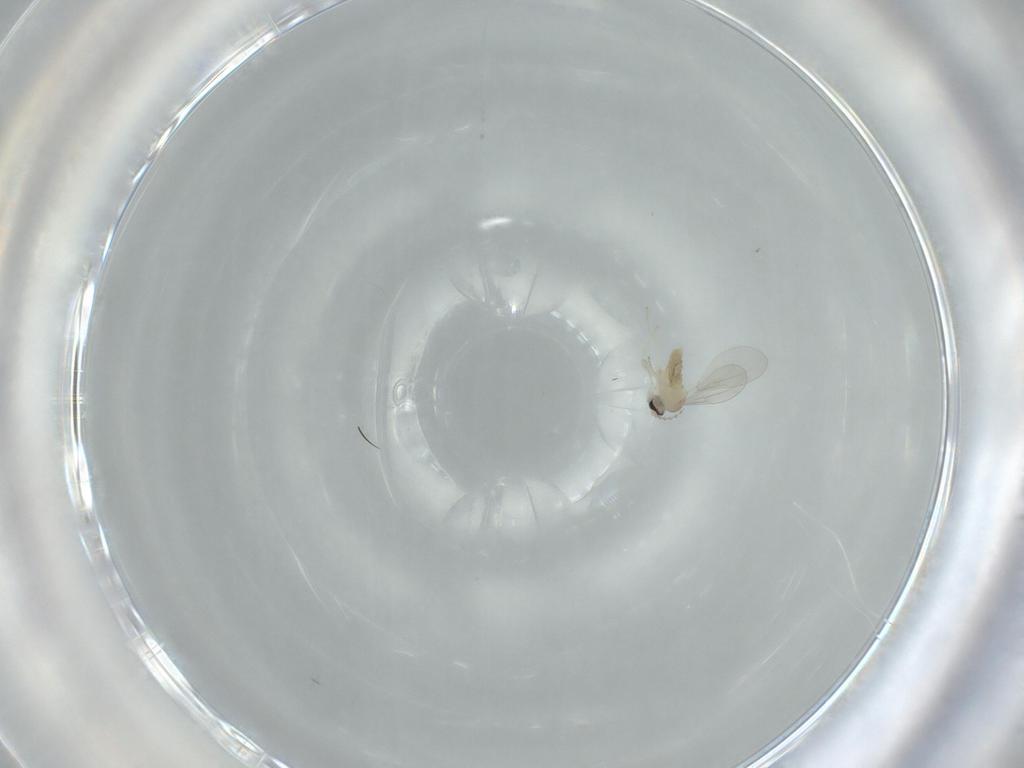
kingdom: Animalia
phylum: Arthropoda
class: Insecta
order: Diptera
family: Cecidomyiidae
